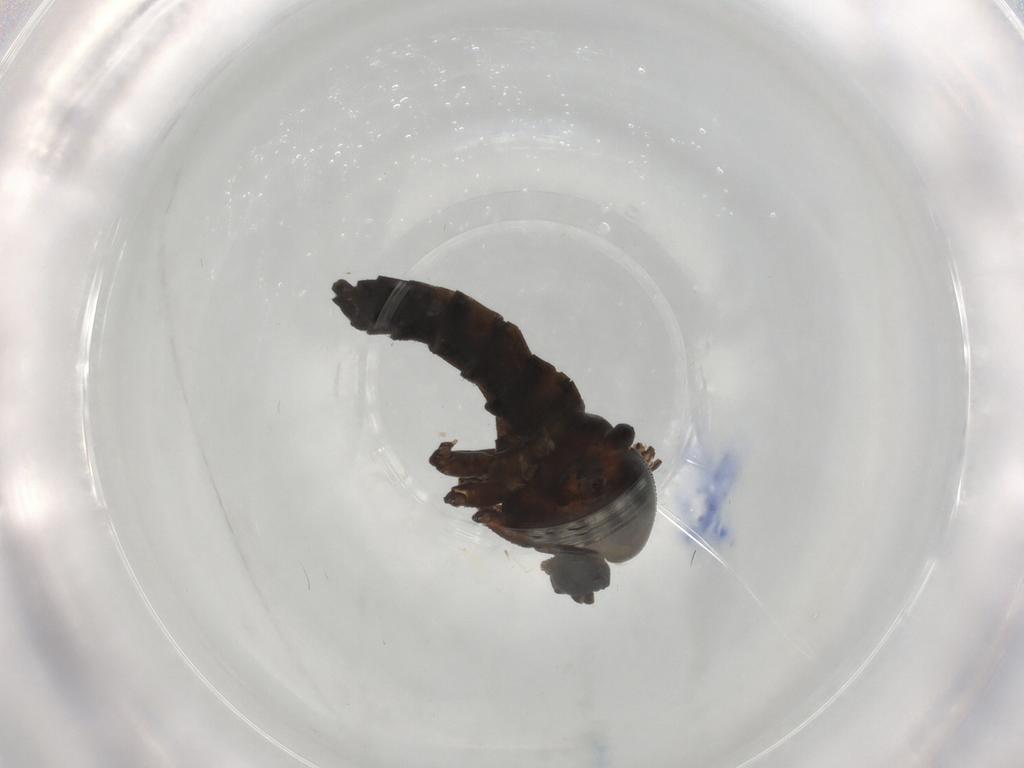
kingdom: Animalia
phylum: Arthropoda
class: Insecta
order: Diptera
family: Sciaridae
